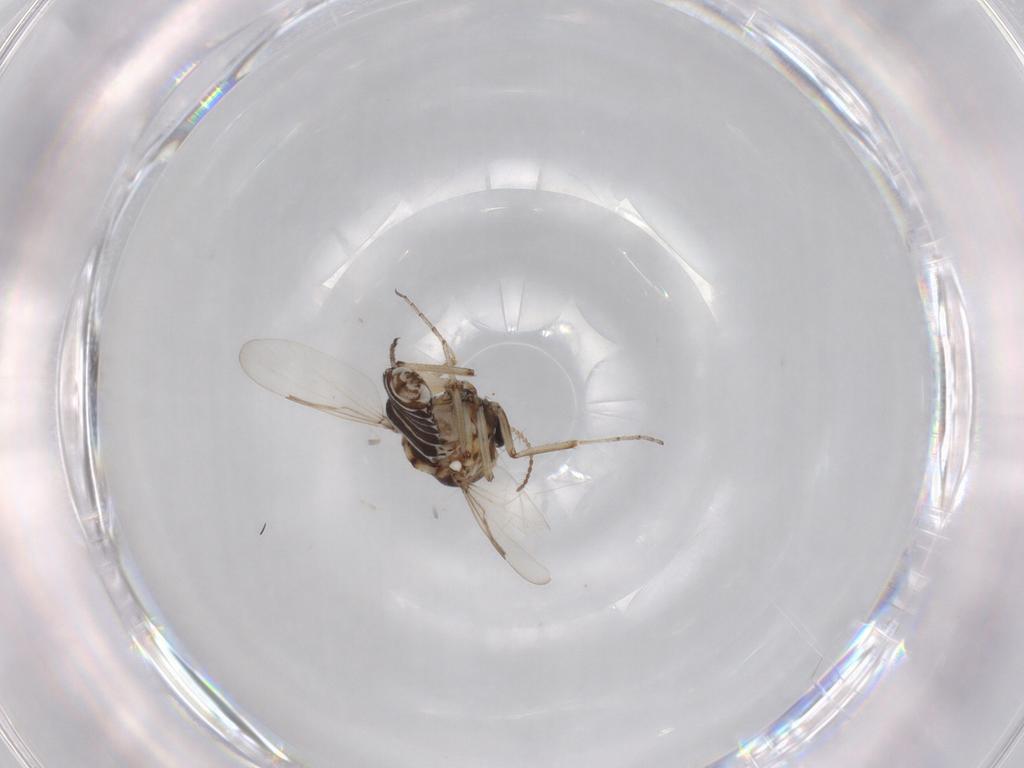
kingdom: Animalia
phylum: Arthropoda
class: Insecta
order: Diptera
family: Ceratopogonidae
